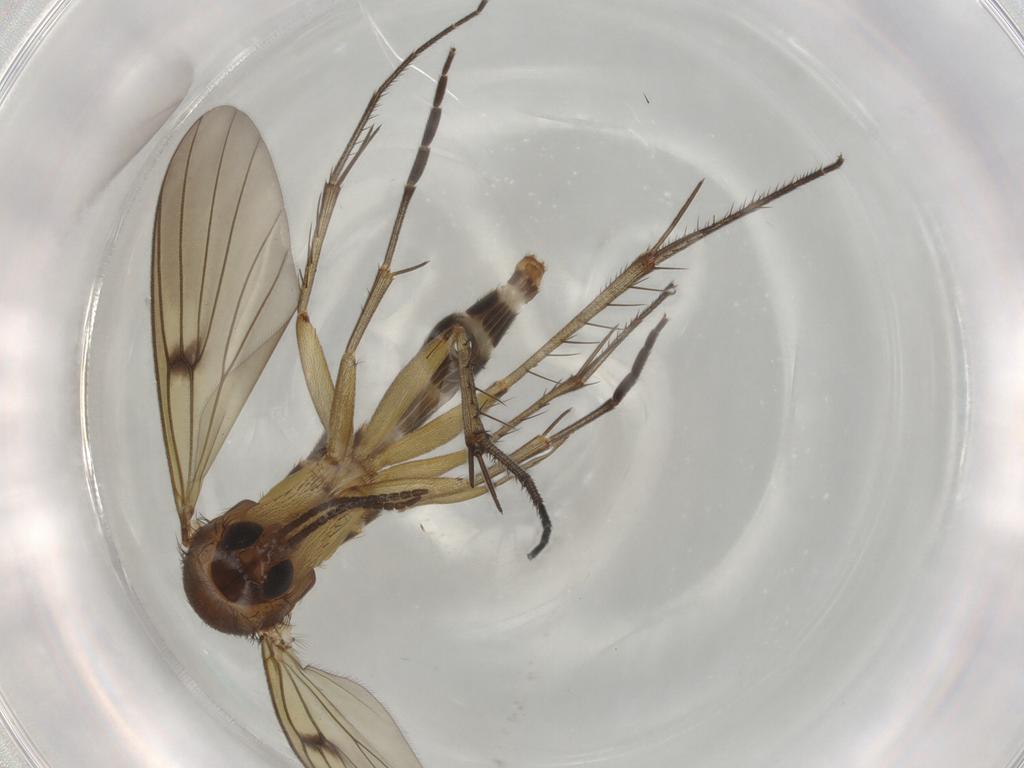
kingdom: Animalia
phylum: Arthropoda
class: Insecta
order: Diptera
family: Mycetophilidae
